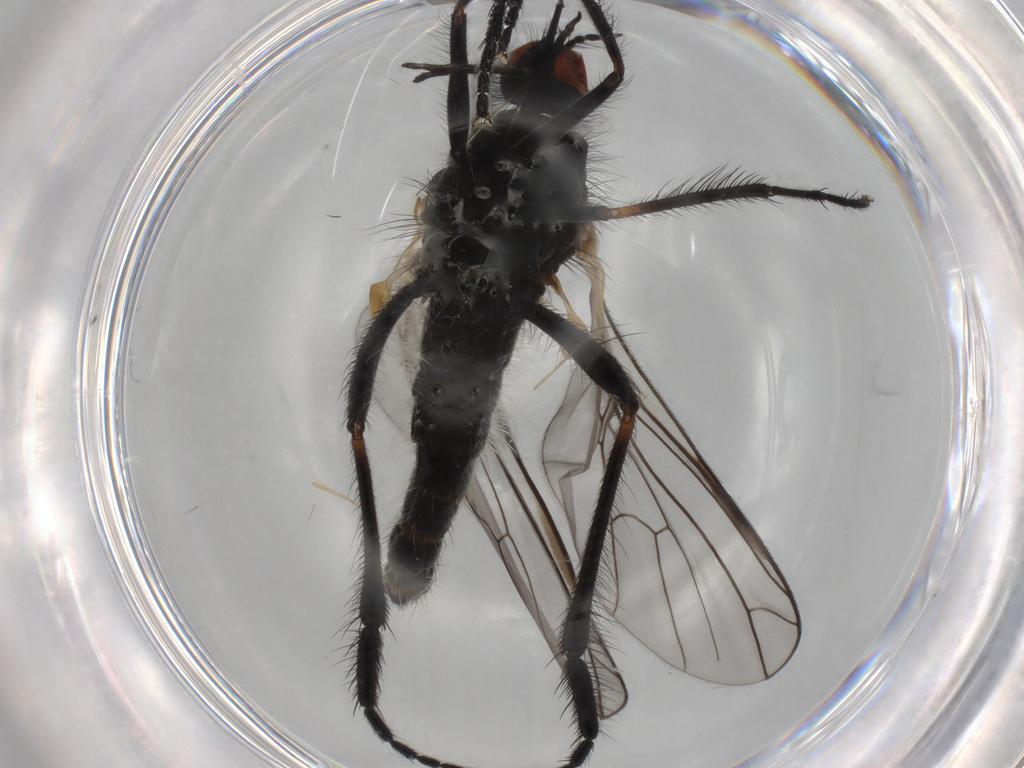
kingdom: Animalia
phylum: Arthropoda
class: Insecta
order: Diptera
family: Empididae
